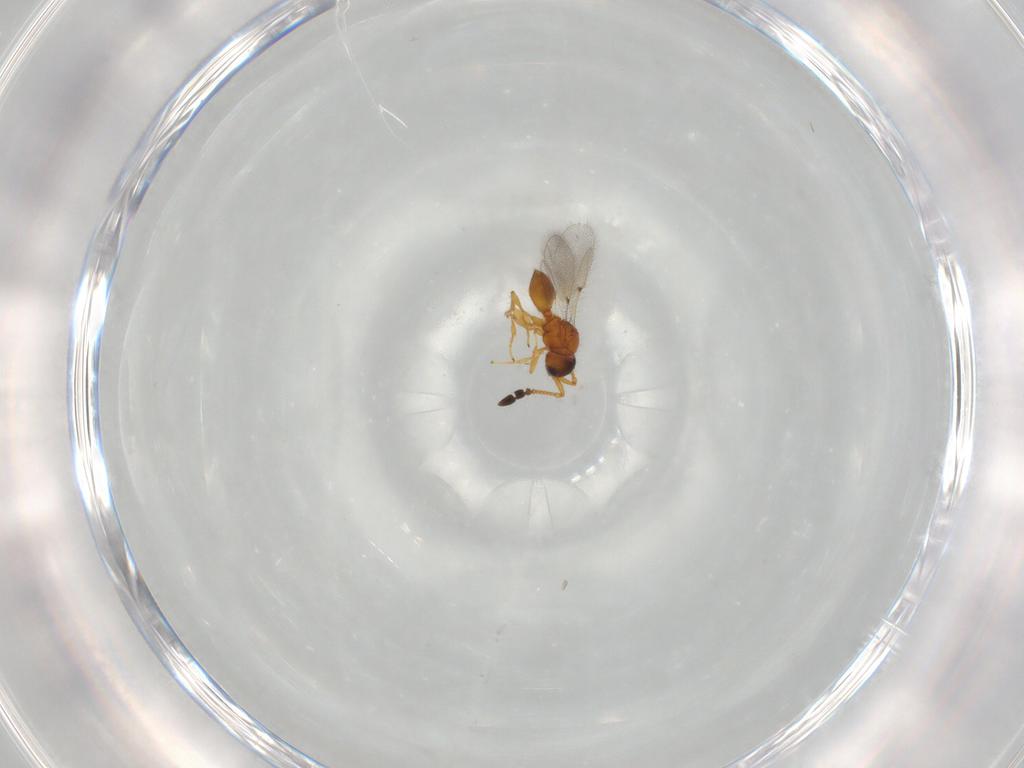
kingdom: Animalia
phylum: Arthropoda
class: Insecta
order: Hymenoptera
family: Diapriidae
